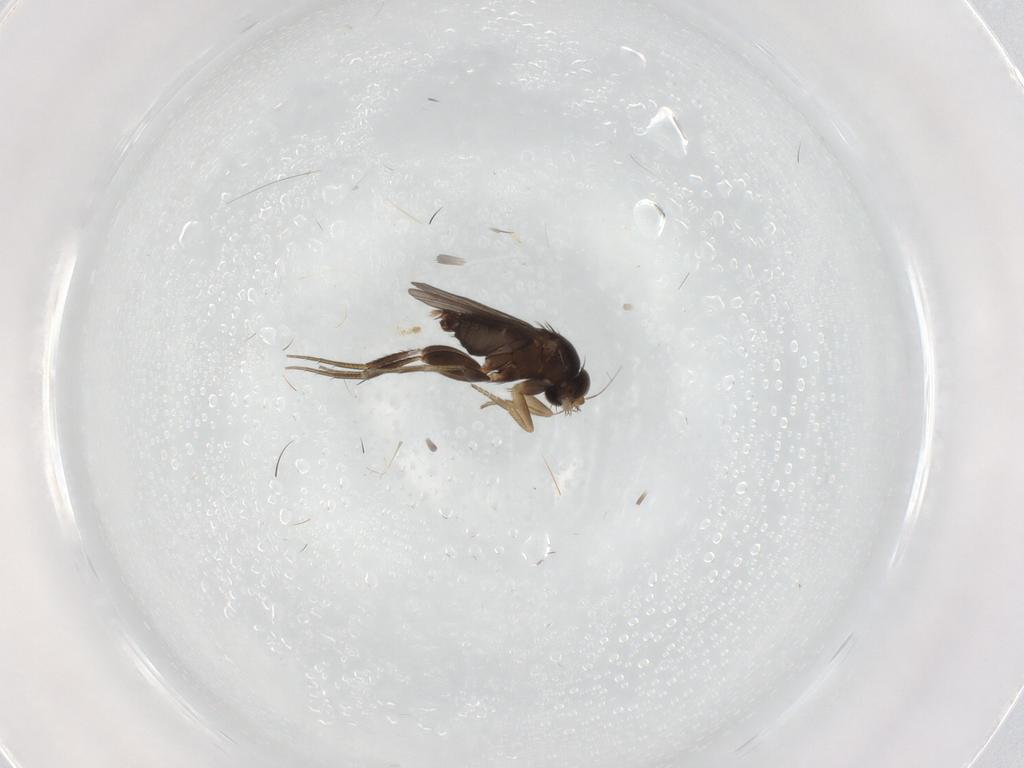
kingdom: Animalia
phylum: Arthropoda
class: Insecta
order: Diptera
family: Phoridae
